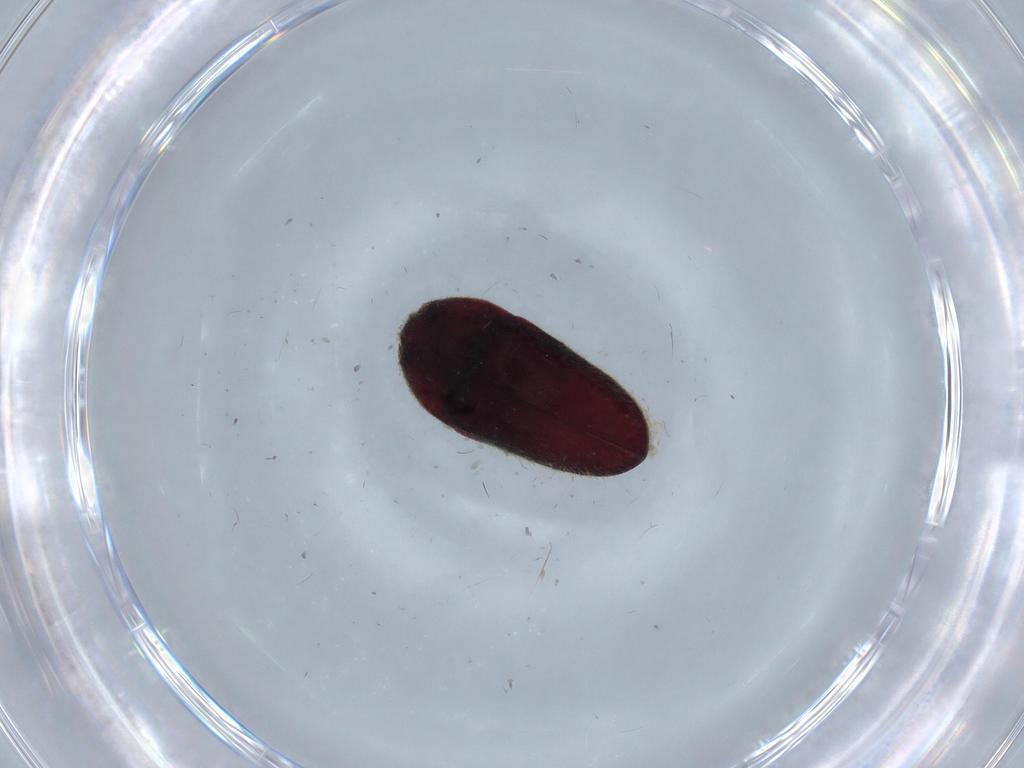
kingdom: Animalia
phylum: Arthropoda
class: Insecta
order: Coleoptera
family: Throscidae
